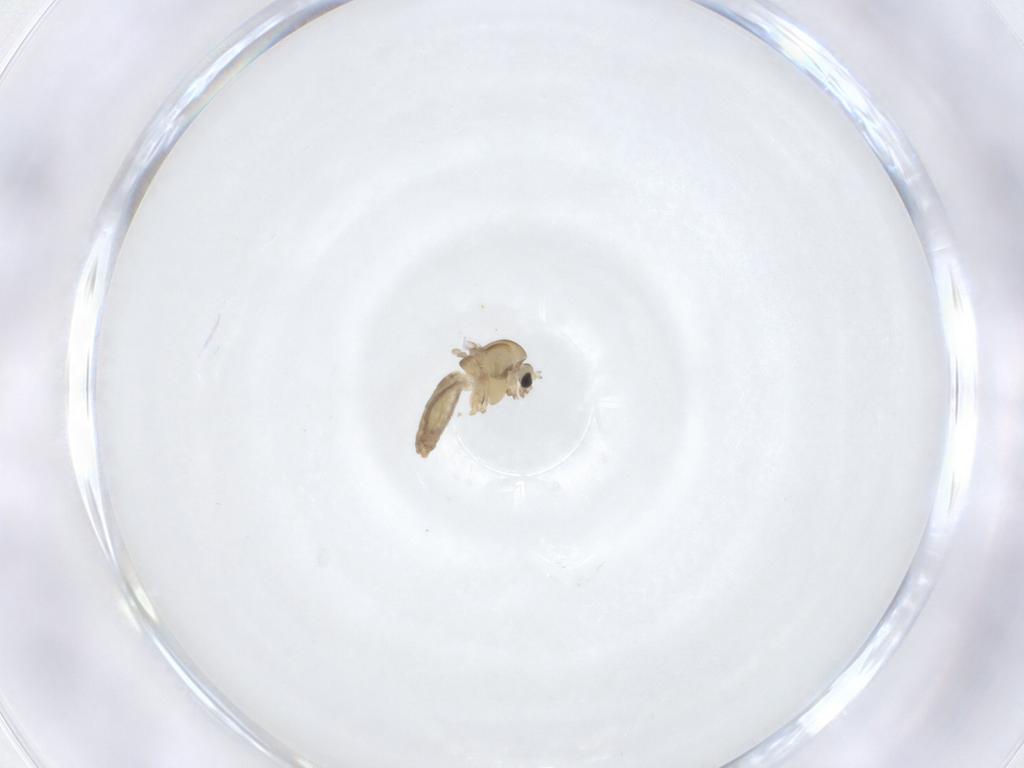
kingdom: Animalia
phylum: Arthropoda
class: Insecta
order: Diptera
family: Chironomidae
